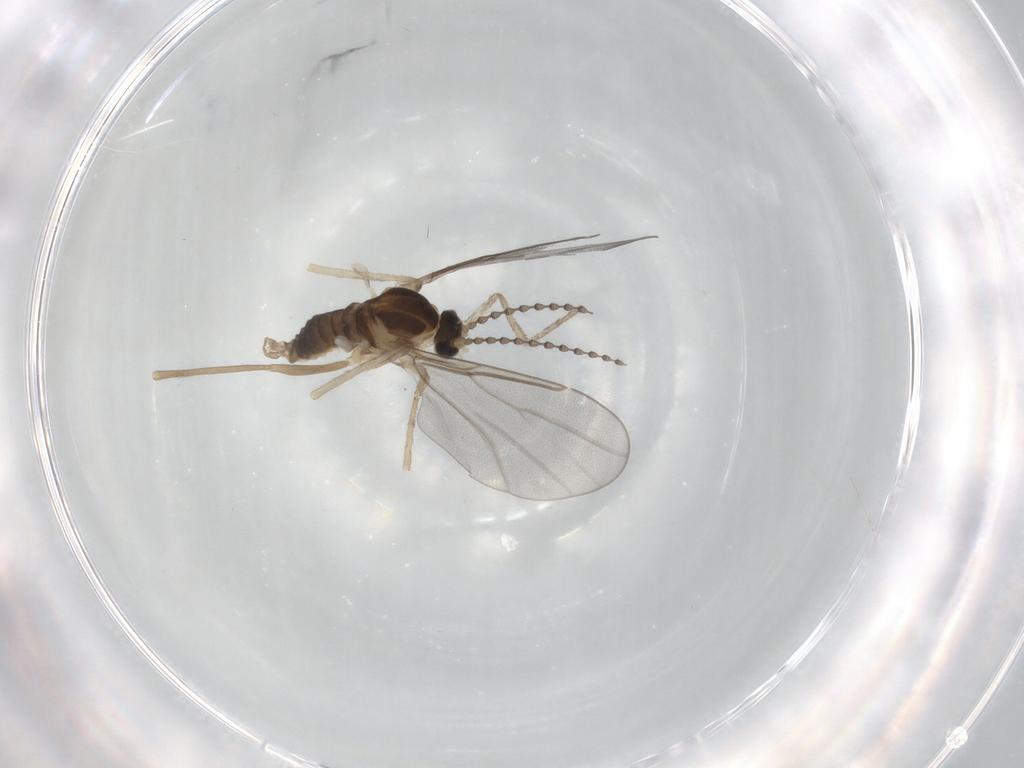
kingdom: Animalia
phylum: Arthropoda
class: Insecta
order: Diptera
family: Cecidomyiidae
